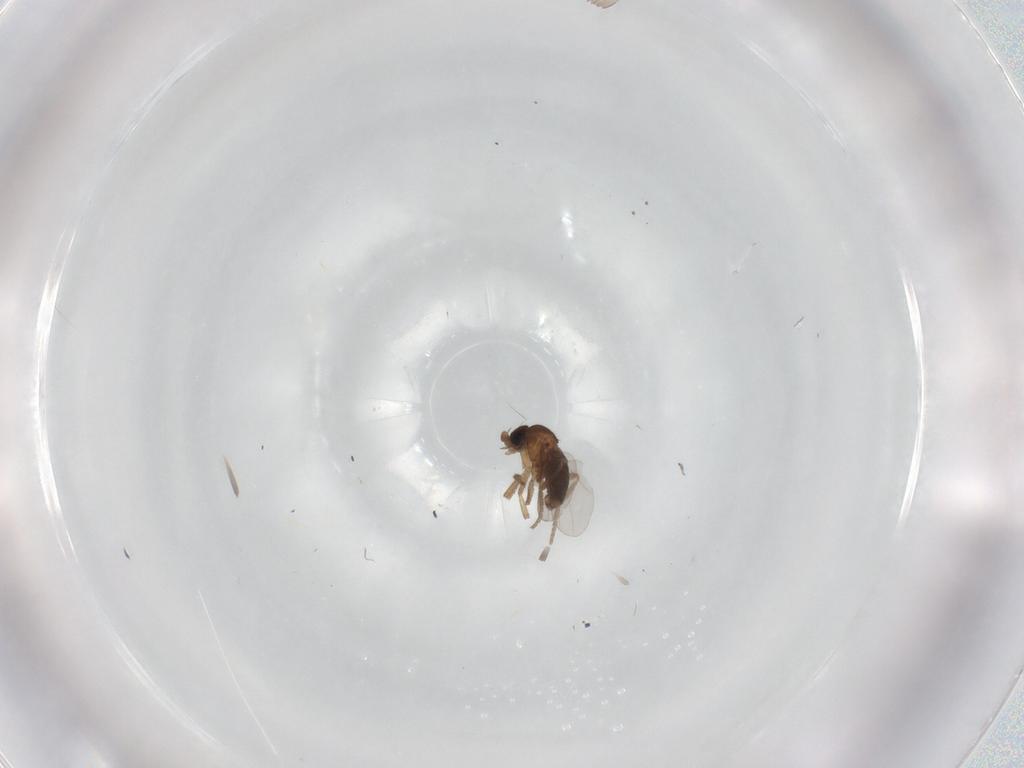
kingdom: Animalia
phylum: Arthropoda
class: Insecta
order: Diptera
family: Phoridae
